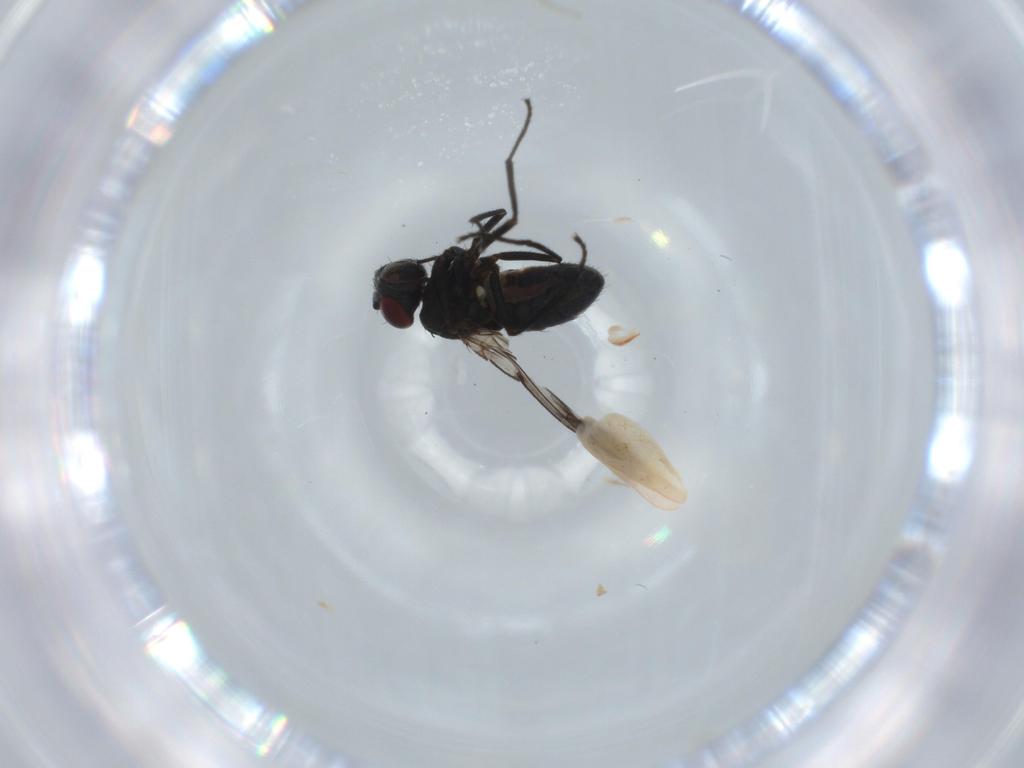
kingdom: Animalia
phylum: Arthropoda
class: Insecta
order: Diptera
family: Ephydridae
